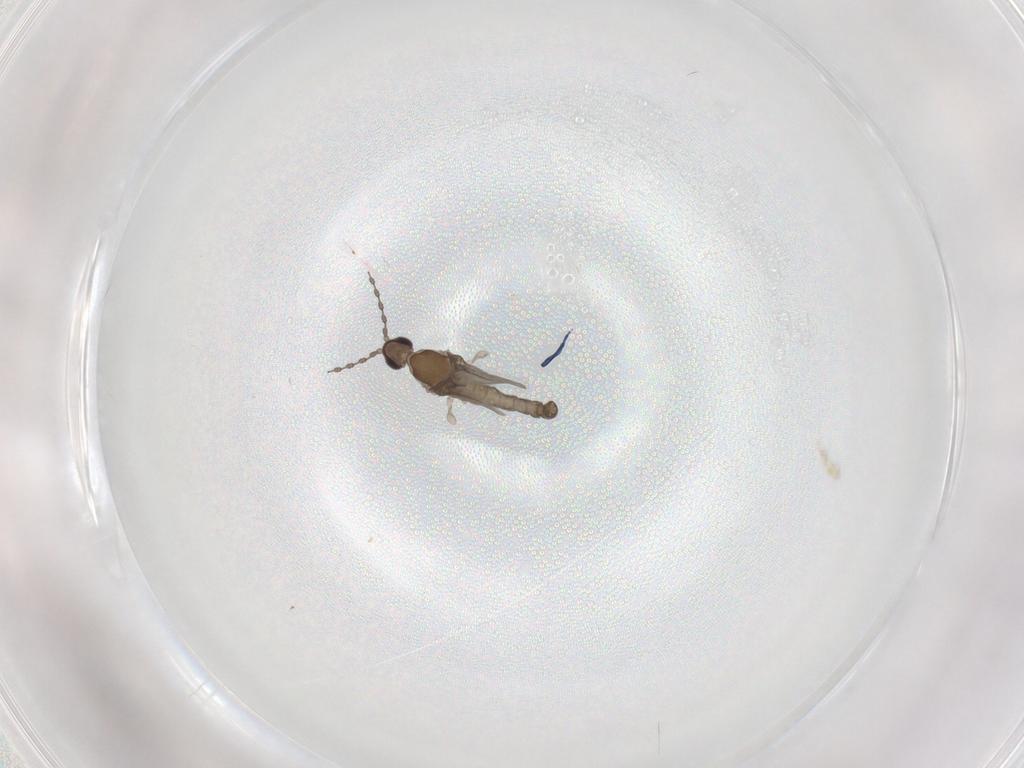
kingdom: Animalia
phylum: Arthropoda
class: Insecta
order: Diptera
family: Cecidomyiidae
